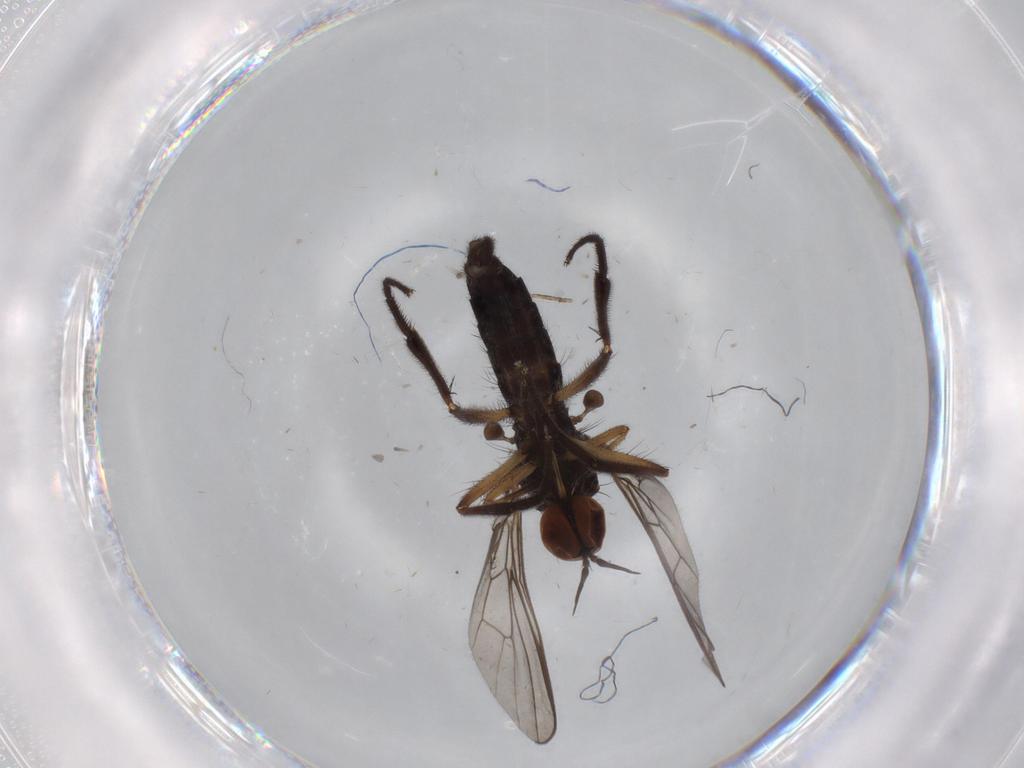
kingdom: Animalia
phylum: Arthropoda
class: Insecta
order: Diptera
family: Empididae
